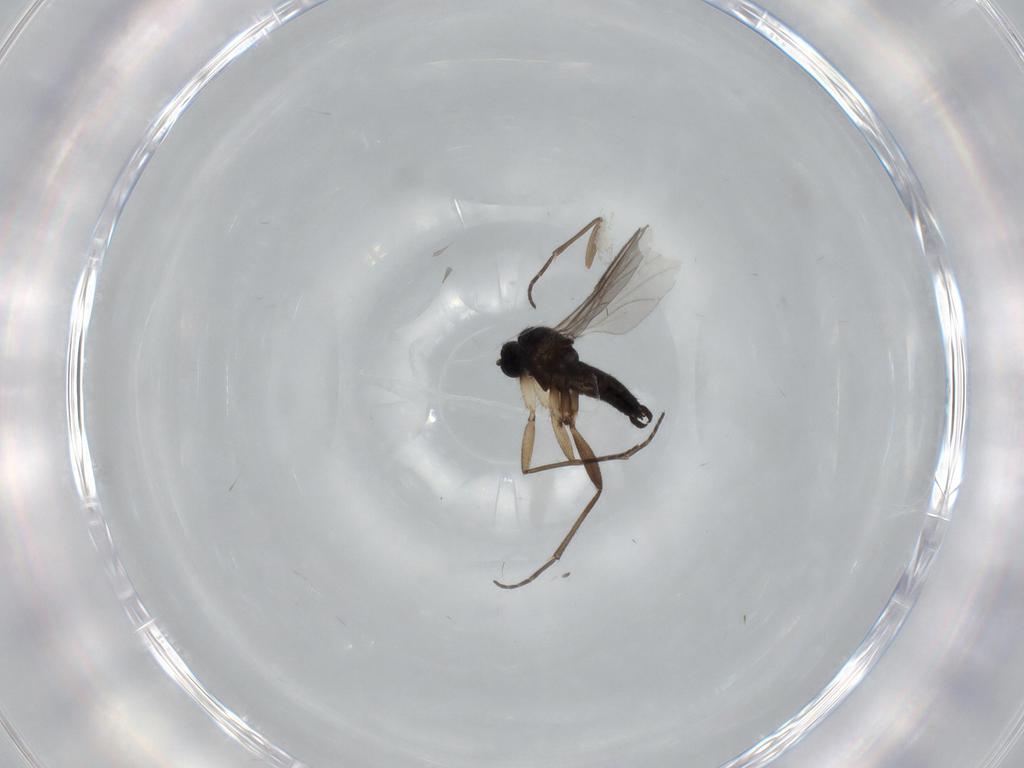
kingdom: Animalia
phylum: Arthropoda
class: Insecta
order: Diptera
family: Sciaridae
